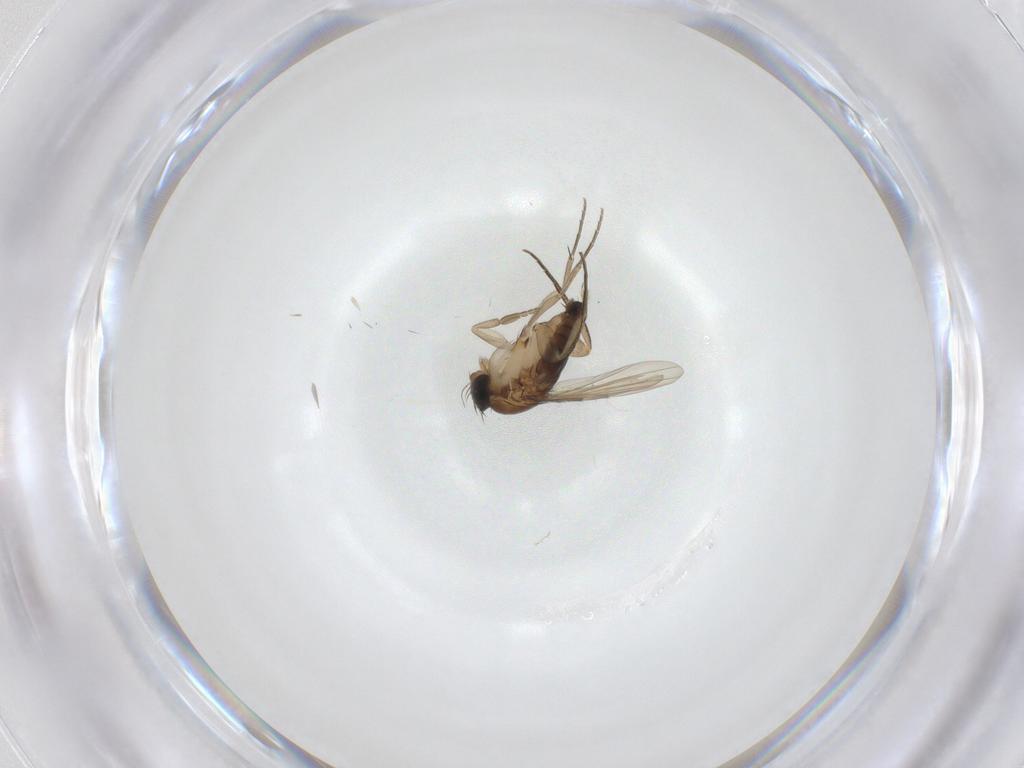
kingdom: Animalia
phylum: Arthropoda
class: Insecta
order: Diptera
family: Phoridae
